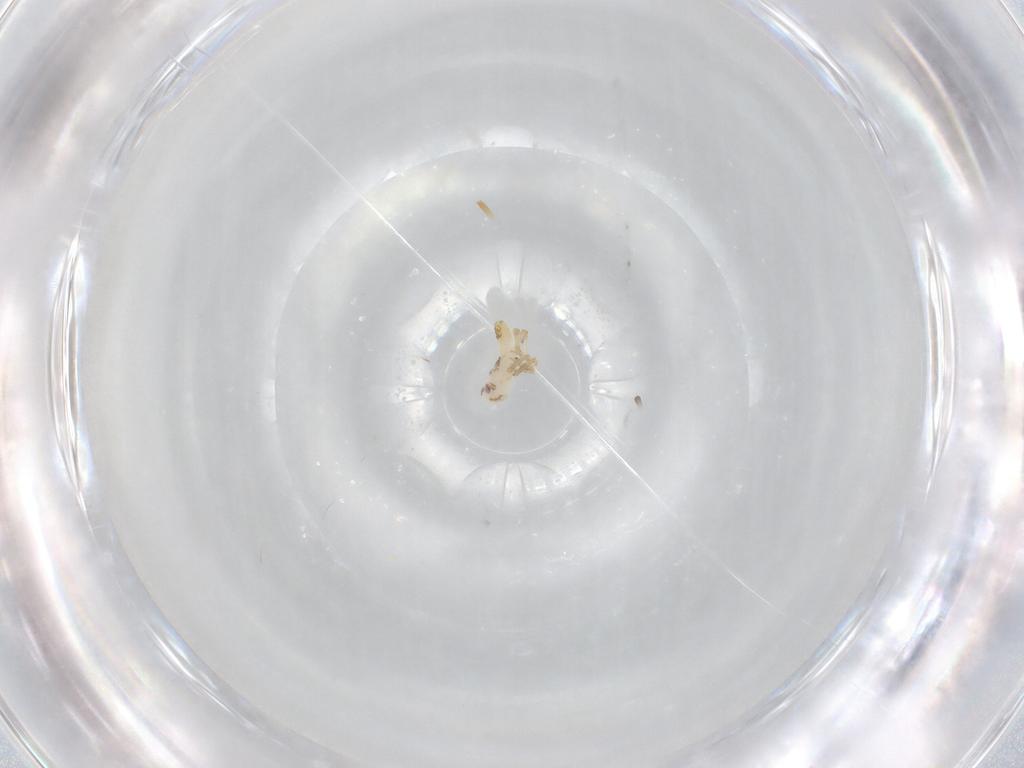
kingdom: Animalia
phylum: Arthropoda
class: Insecta
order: Hemiptera
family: Delphacidae
